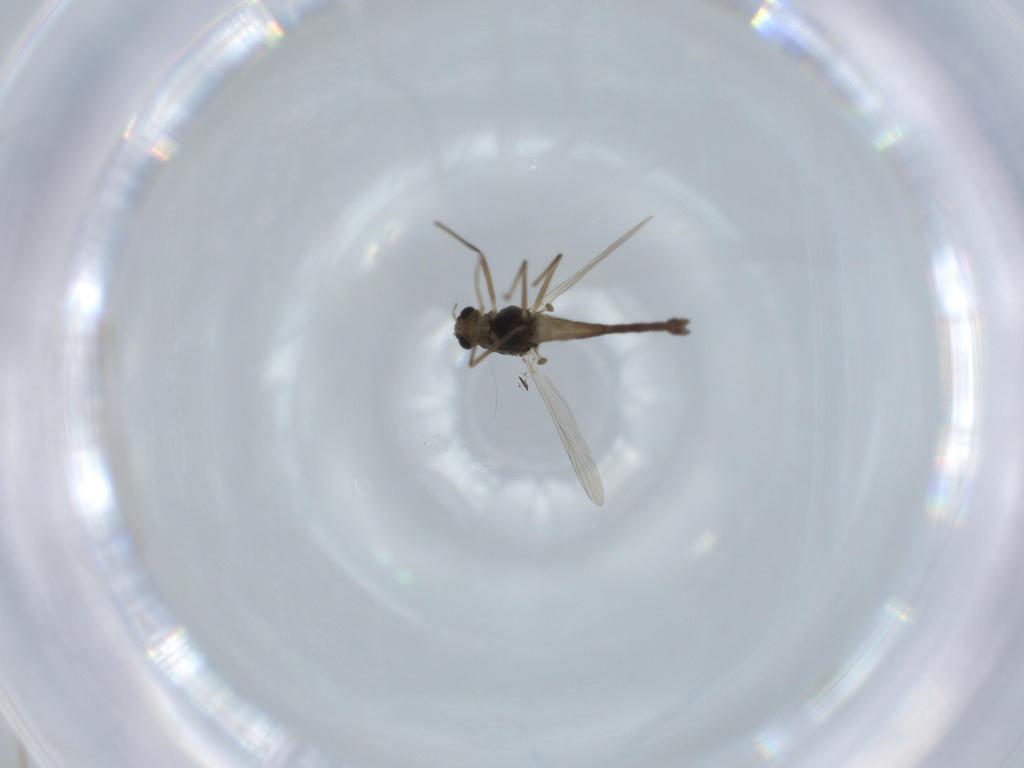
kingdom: Animalia
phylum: Arthropoda
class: Insecta
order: Diptera
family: Chironomidae
